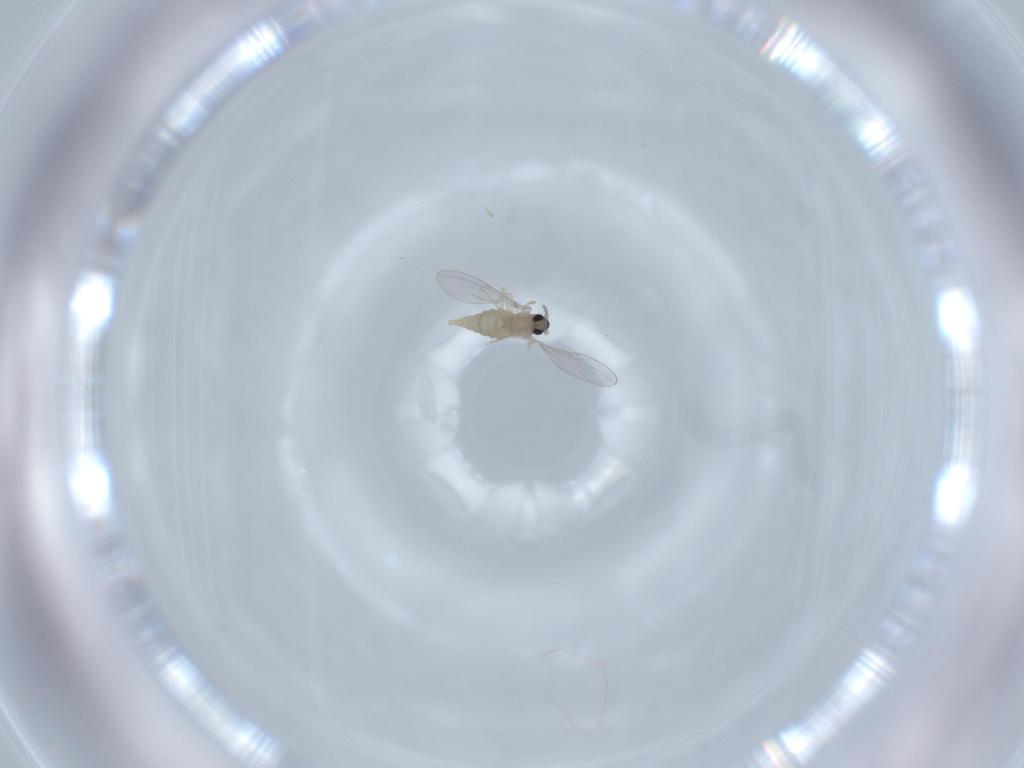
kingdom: Animalia
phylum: Arthropoda
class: Insecta
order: Diptera
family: Cecidomyiidae
